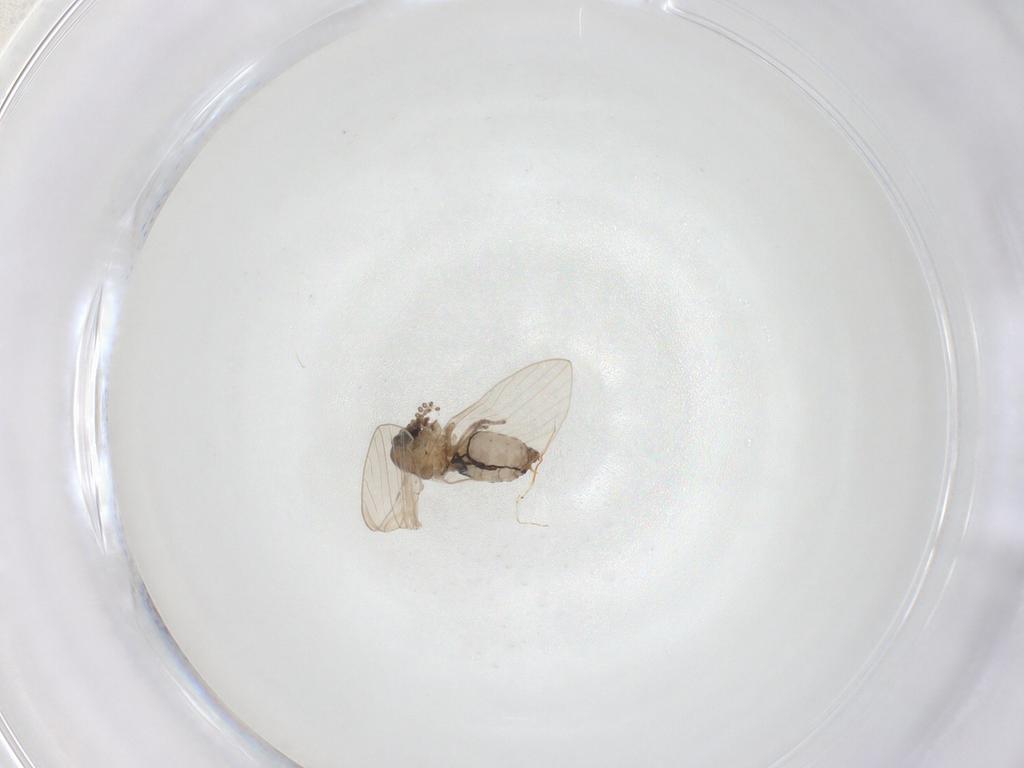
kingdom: Animalia
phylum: Arthropoda
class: Insecta
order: Diptera
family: Psychodidae
